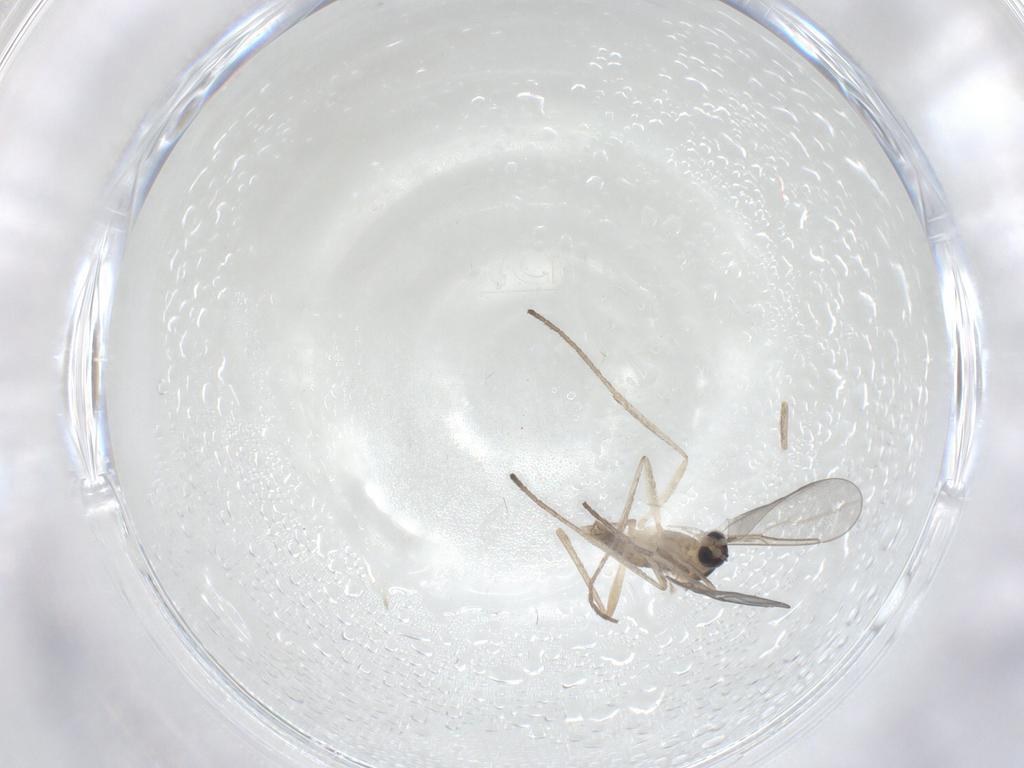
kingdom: Animalia
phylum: Arthropoda
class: Insecta
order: Diptera
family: Cecidomyiidae
